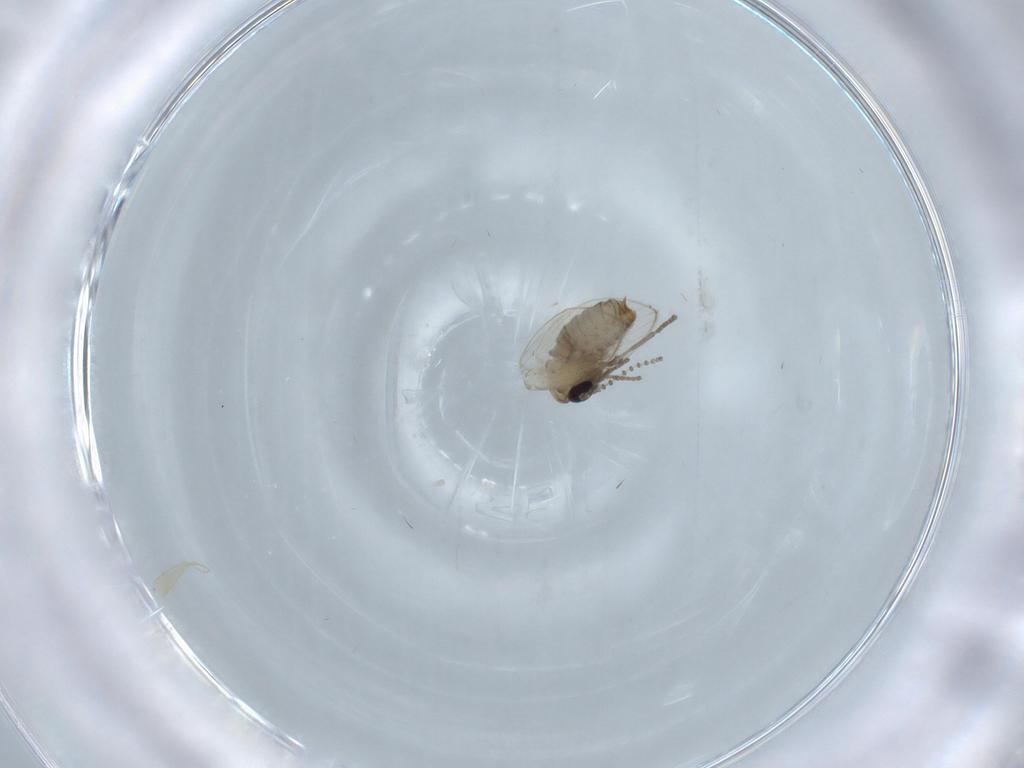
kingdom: Animalia
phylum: Arthropoda
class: Insecta
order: Diptera
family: Psychodidae
